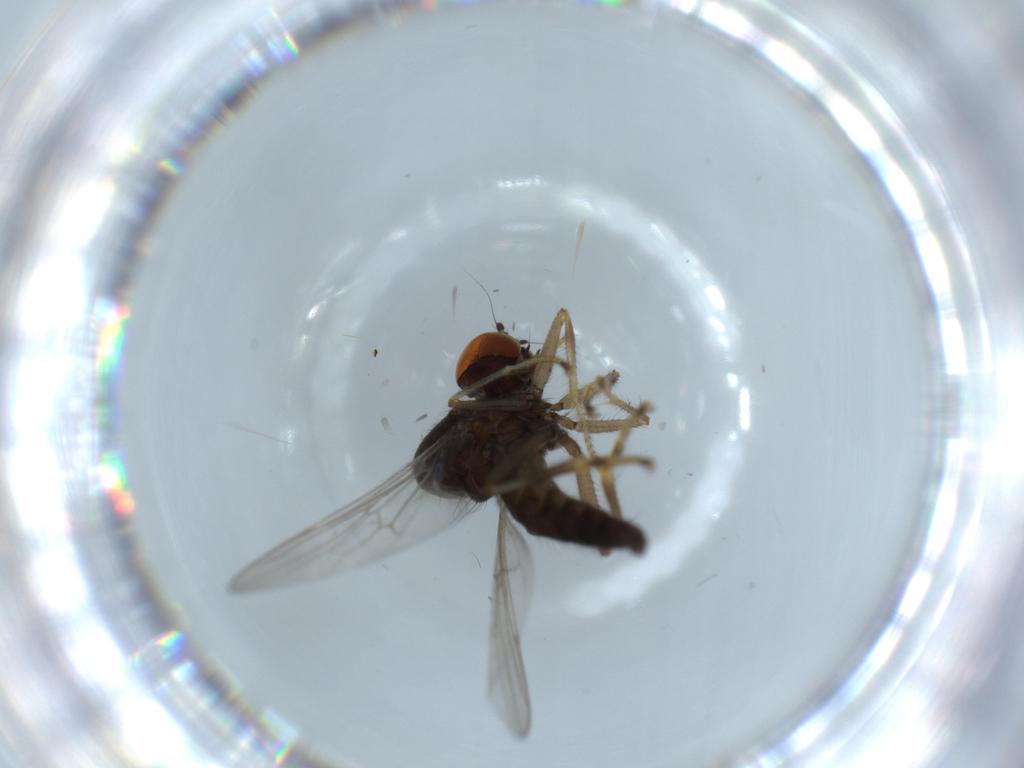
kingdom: Animalia
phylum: Arthropoda
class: Insecta
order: Diptera
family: Hybotidae
